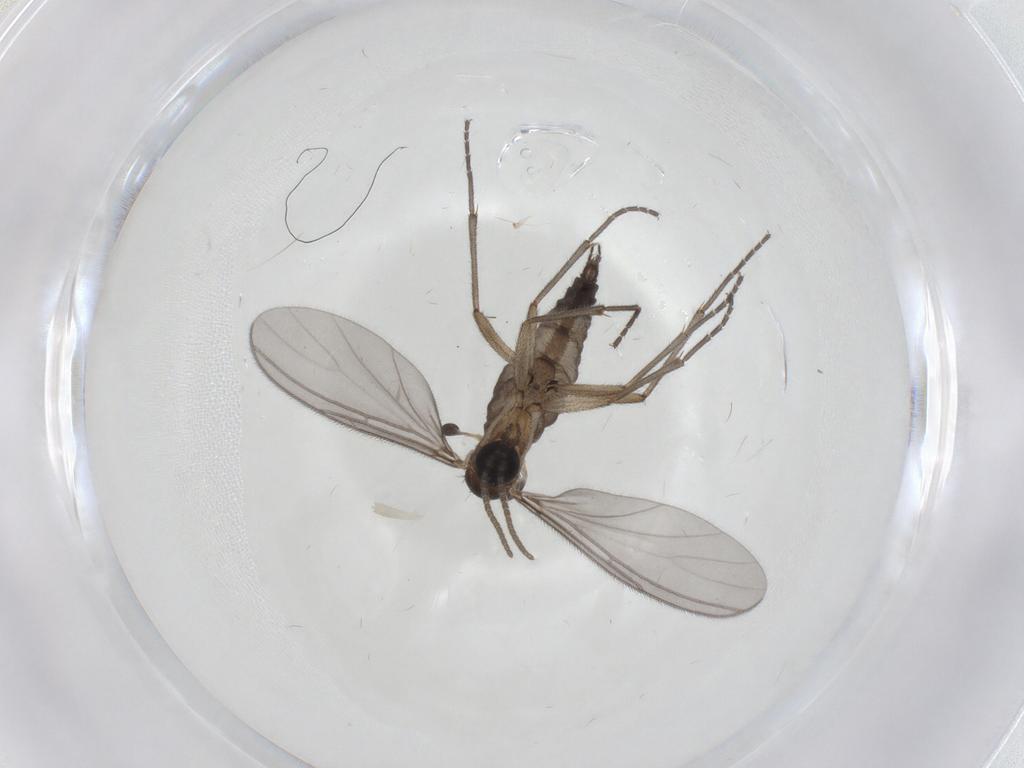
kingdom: Animalia
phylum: Arthropoda
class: Insecta
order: Diptera
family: Sciaridae
